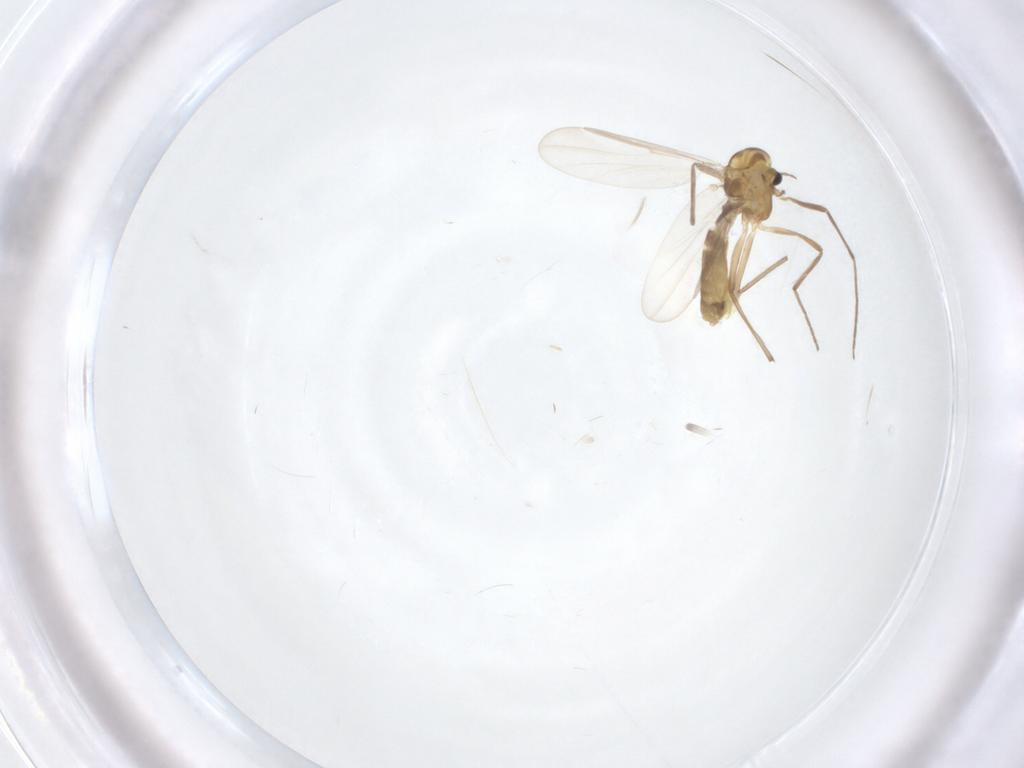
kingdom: Animalia
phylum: Arthropoda
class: Insecta
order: Diptera
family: Chironomidae
